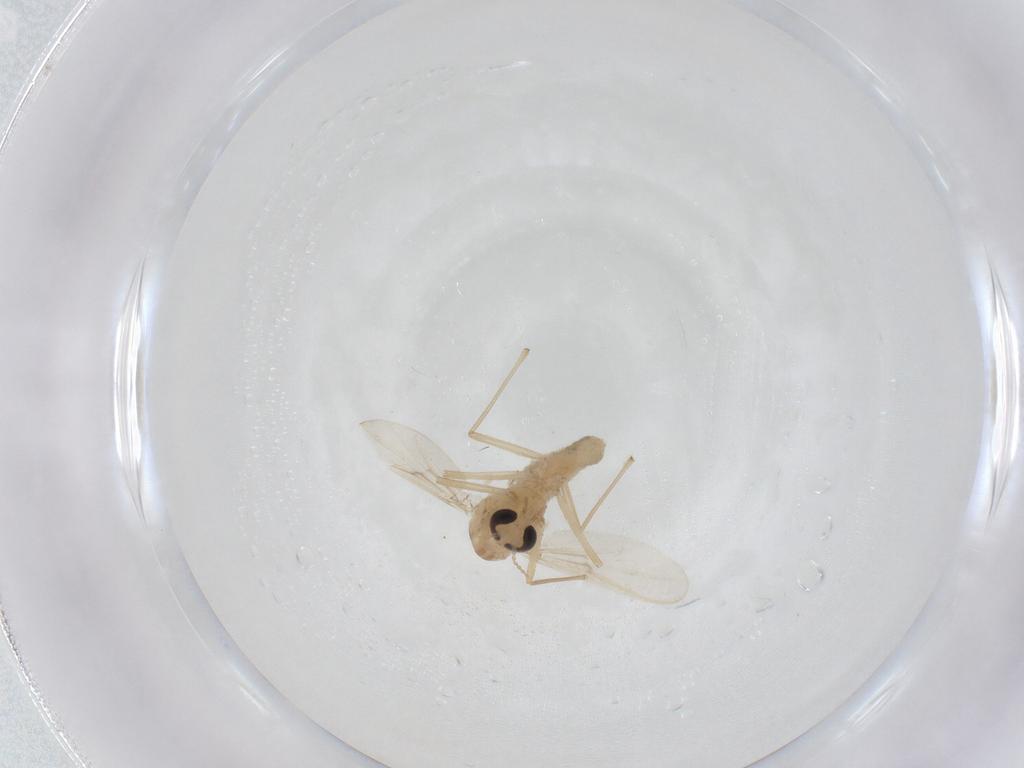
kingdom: Animalia
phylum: Arthropoda
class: Insecta
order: Diptera
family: Chironomidae
